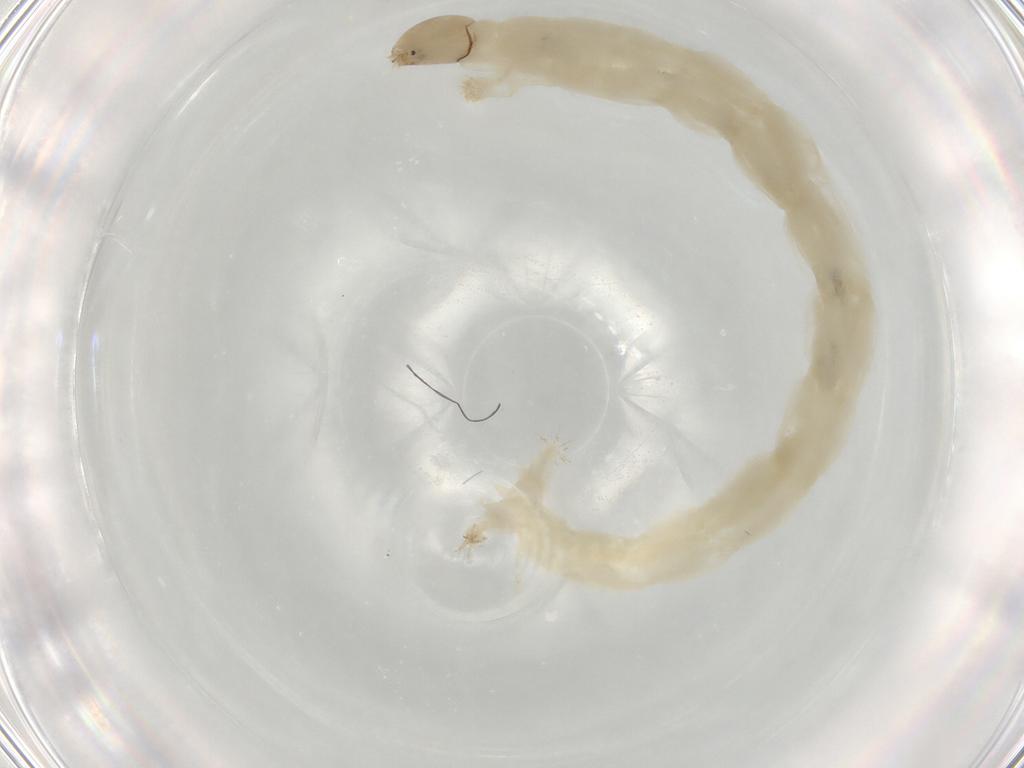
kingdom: Animalia
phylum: Arthropoda
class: Insecta
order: Diptera
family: Chironomidae
